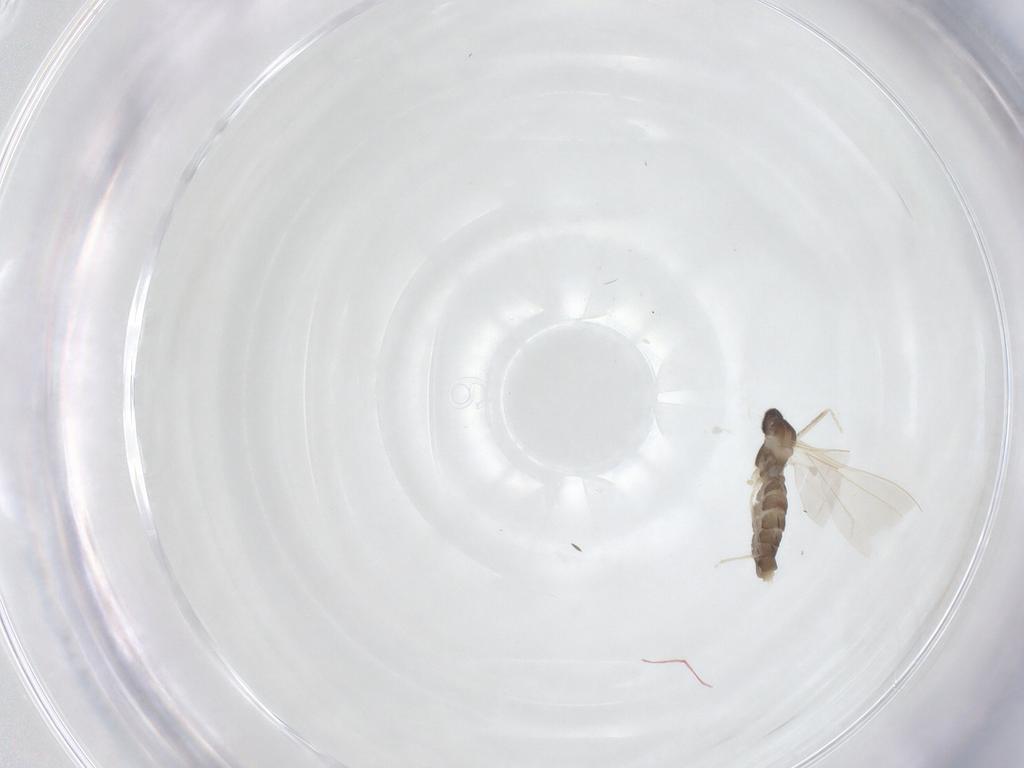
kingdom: Animalia
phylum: Arthropoda
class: Insecta
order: Diptera
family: Cecidomyiidae
